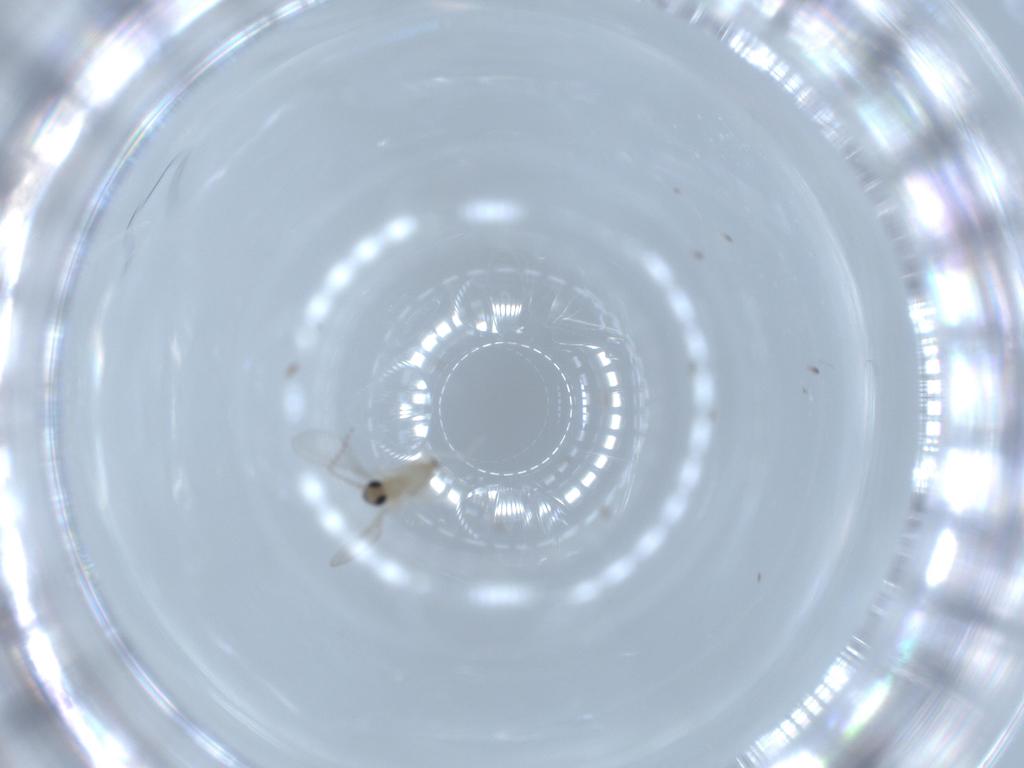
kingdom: Animalia
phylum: Arthropoda
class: Insecta
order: Diptera
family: Cecidomyiidae
